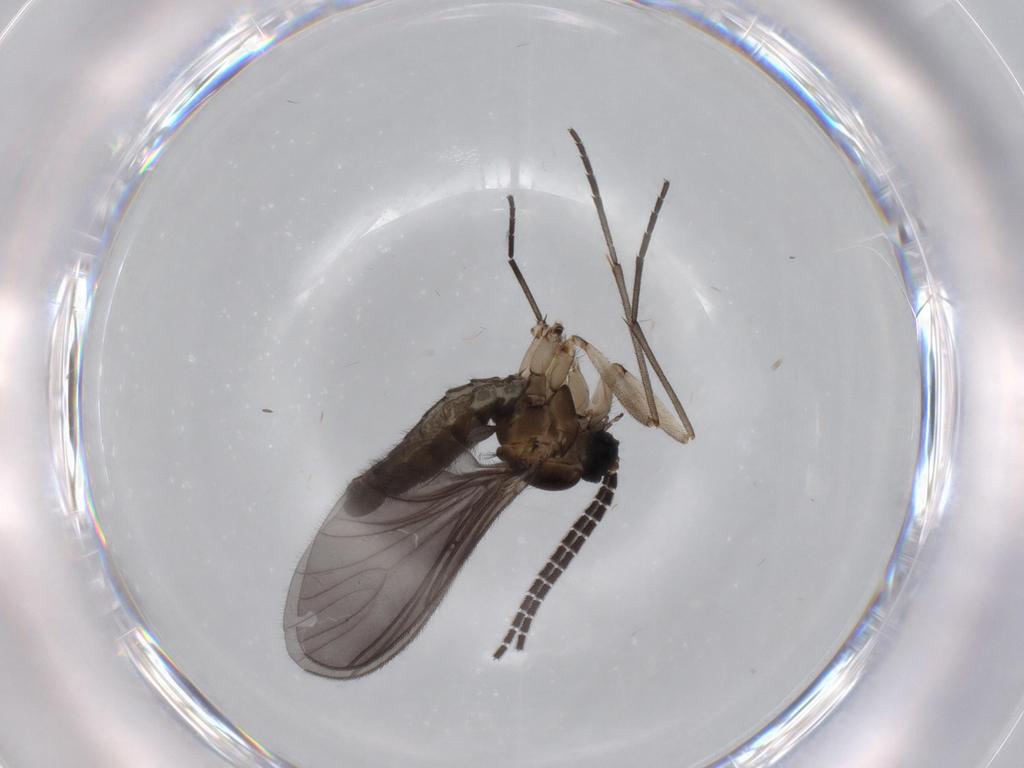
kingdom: Animalia
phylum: Arthropoda
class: Insecta
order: Diptera
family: Sciaridae
